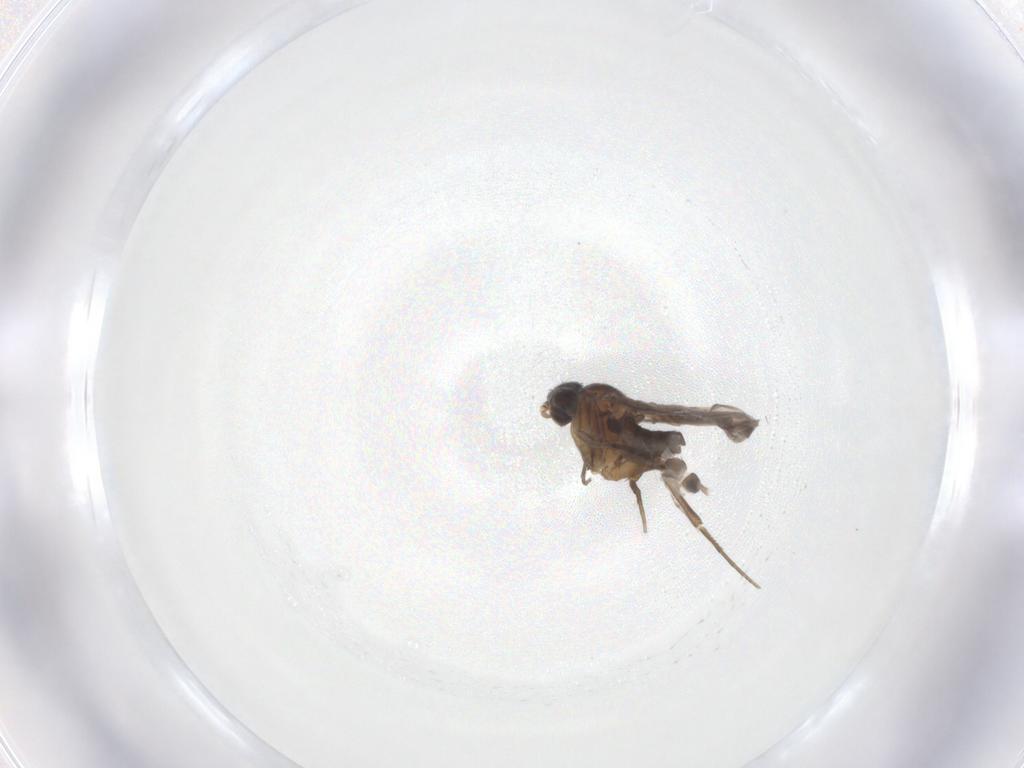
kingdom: Animalia
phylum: Arthropoda
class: Insecta
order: Diptera
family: Phoridae
